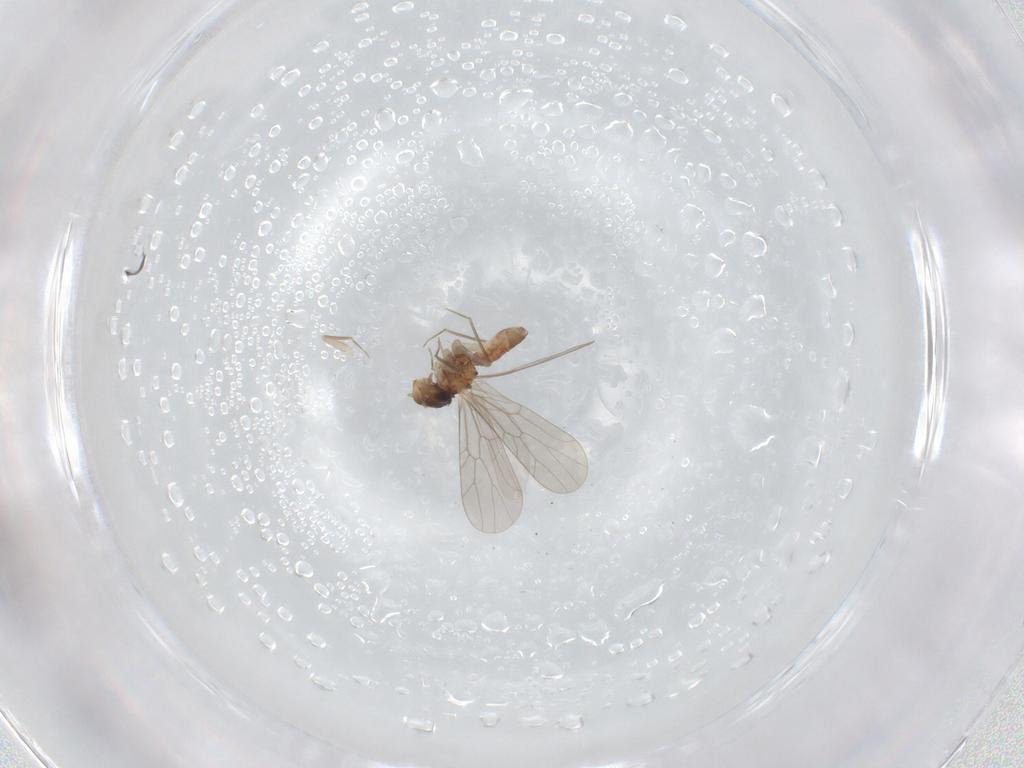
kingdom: Animalia
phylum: Arthropoda
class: Insecta
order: Psocodea
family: Lepidopsocidae
